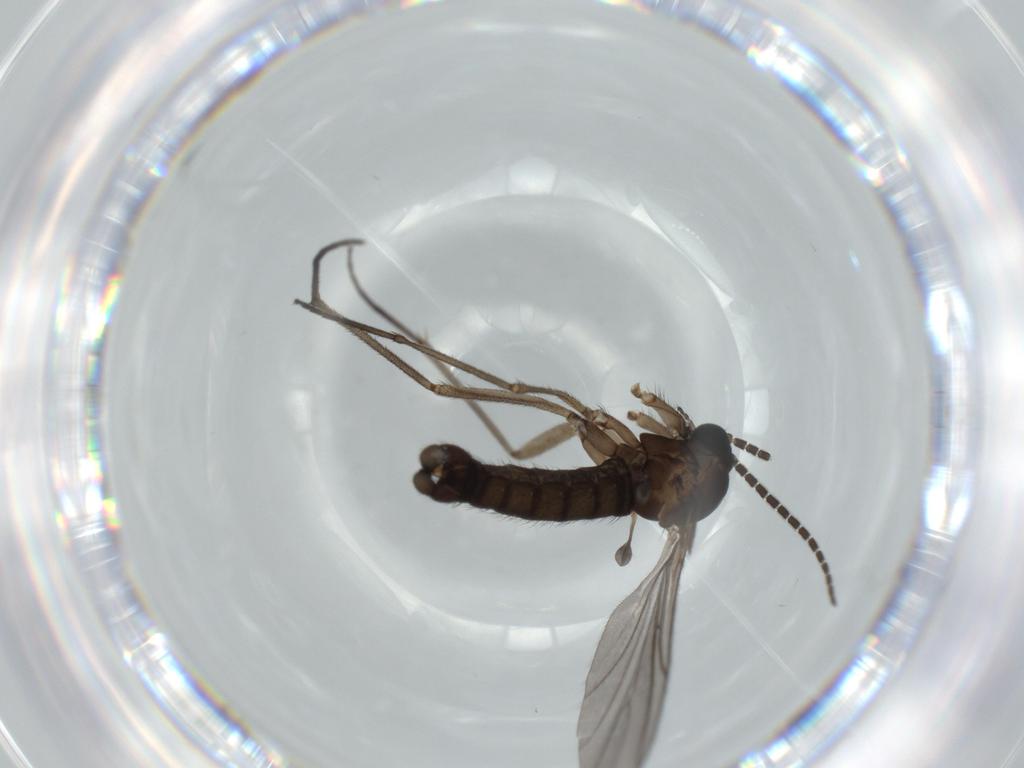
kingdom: Animalia
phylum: Arthropoda
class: Insecta
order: Diptera
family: Sciaridae
